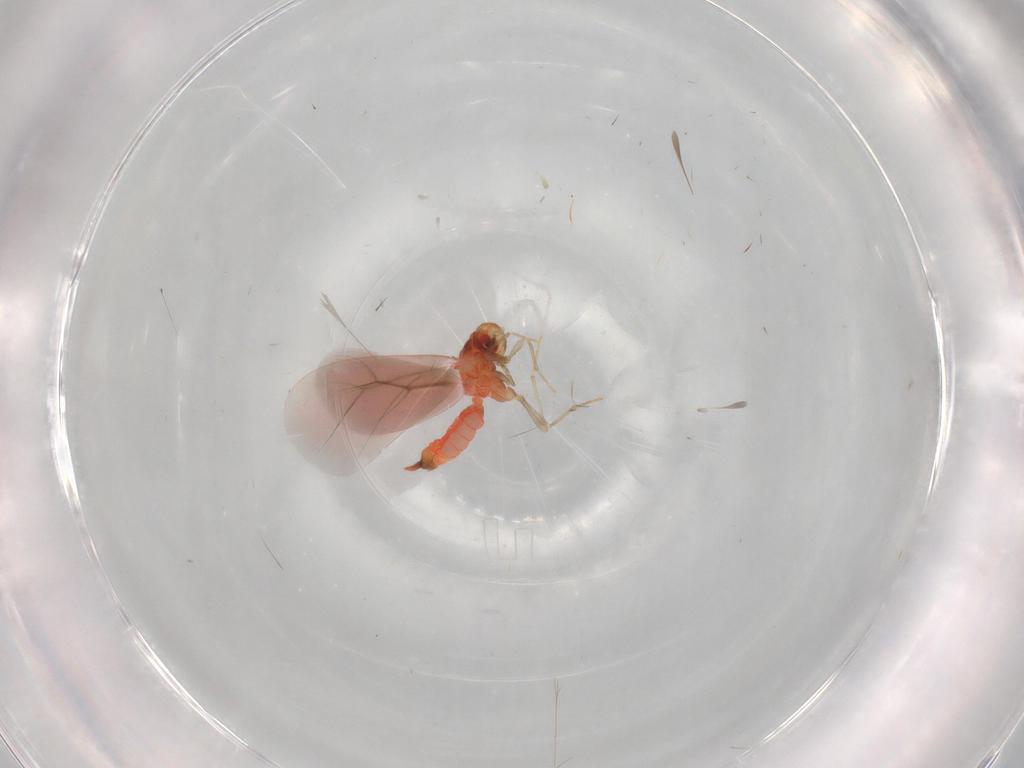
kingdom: Animalia
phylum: Arthropoda
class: Insecta
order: Hemiptera
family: Aleyrodidae
